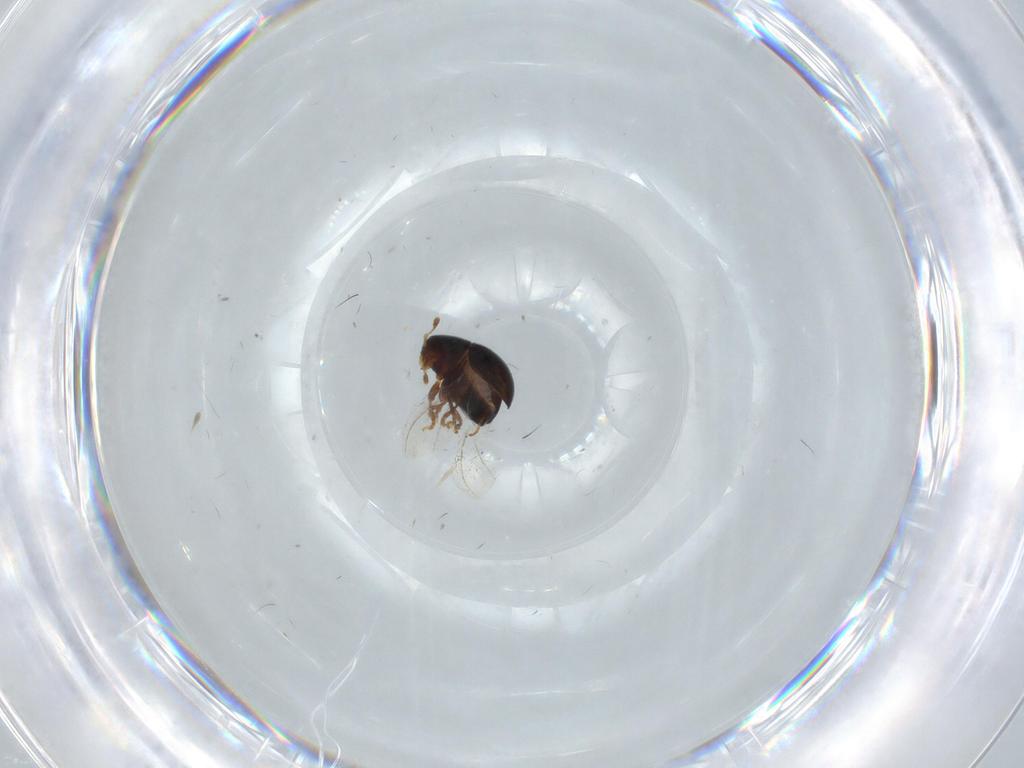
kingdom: Animalia
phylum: Arthropoda
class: Insecta
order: Coleoptera
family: Anthribidae
